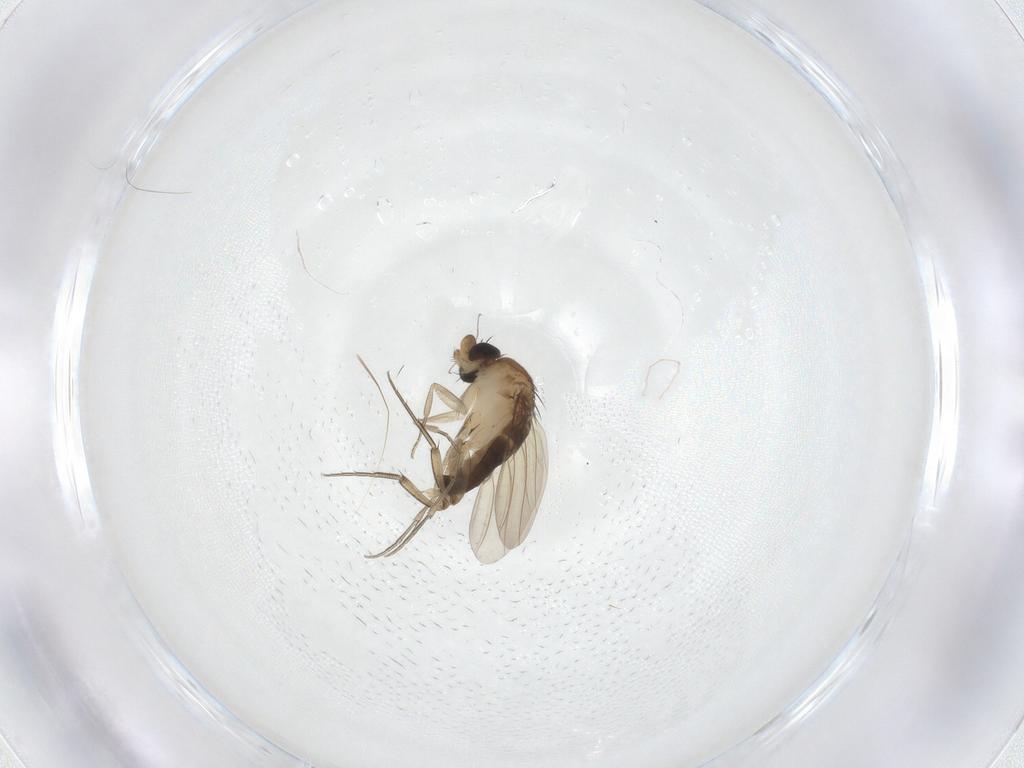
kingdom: Animalia
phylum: Arthropoda
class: Insecta
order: Diptera
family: Phoridae
